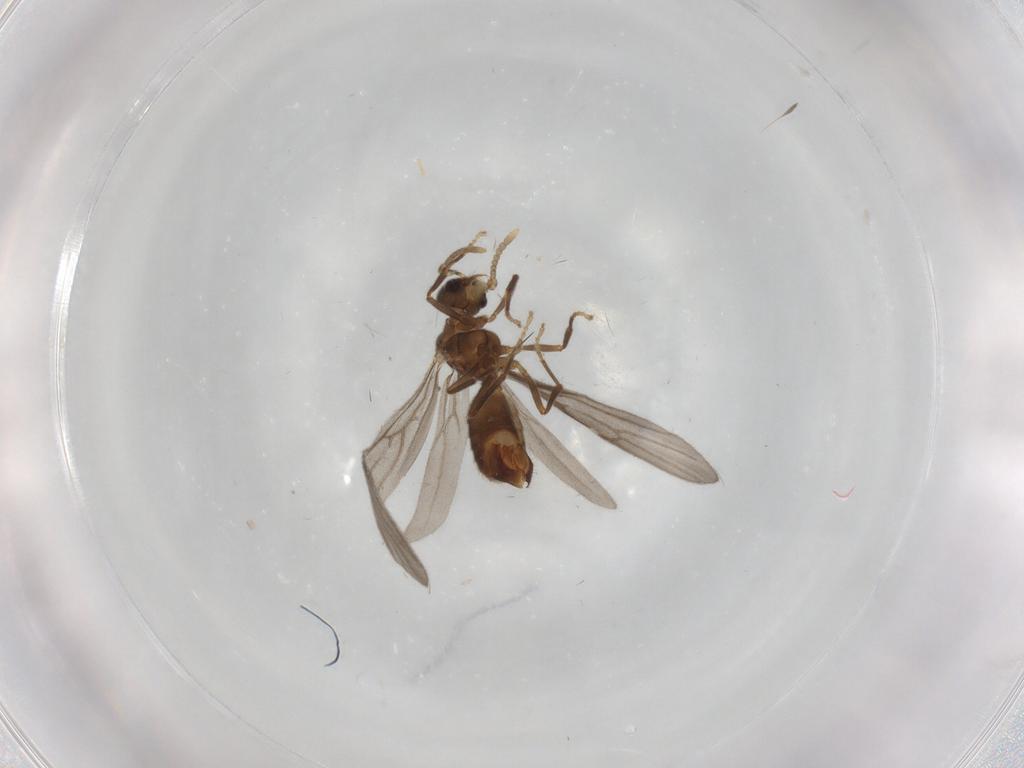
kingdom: Animalia
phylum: Arthropoda
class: Insecta
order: Hymenoptera
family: Formicidae
